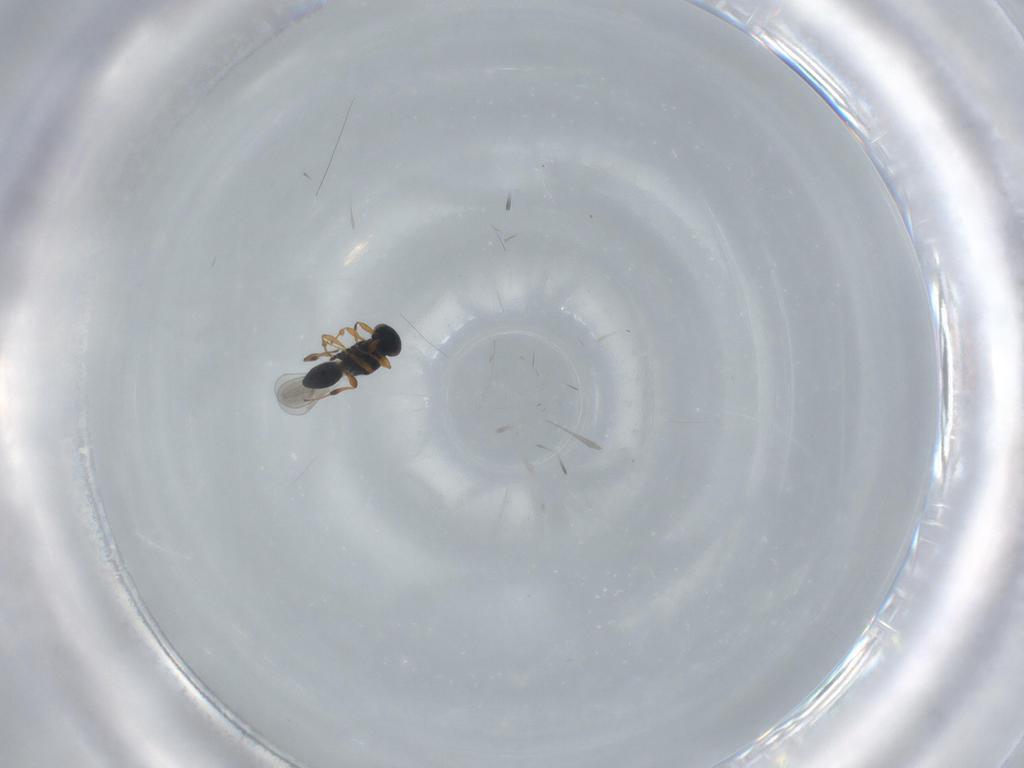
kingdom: Animalia
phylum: Arthropoda
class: Insecta
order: Hymenoptera
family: Platygastridae
